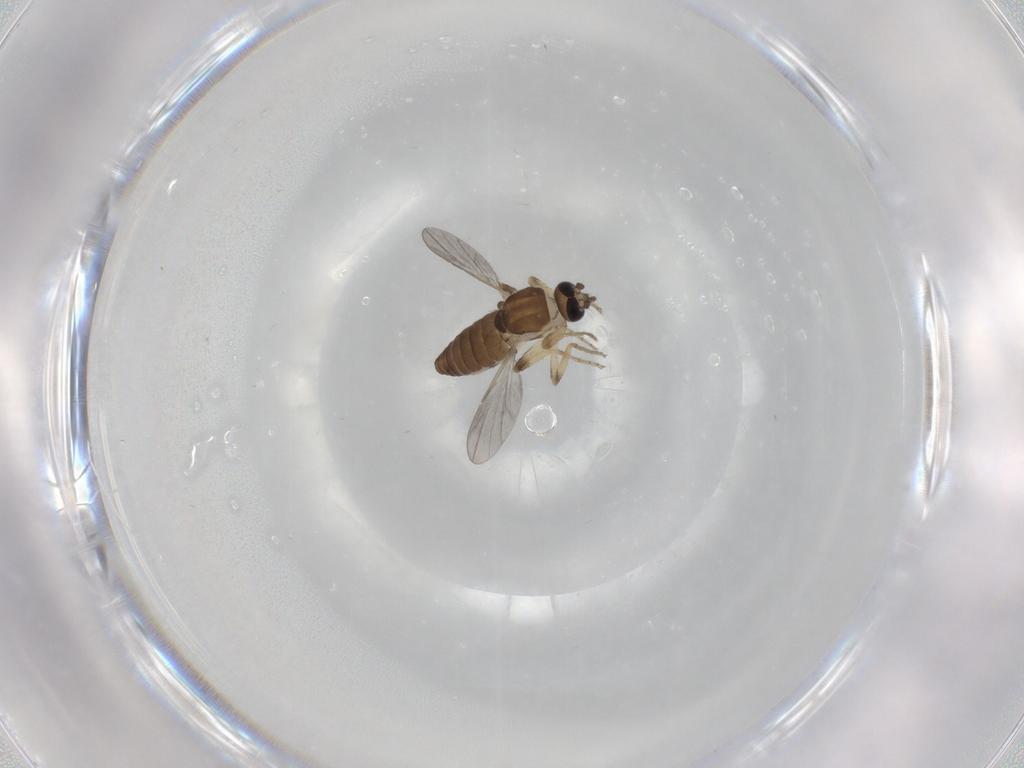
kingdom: Animalia
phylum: Arthropoda
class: Insecta
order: Diptera
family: Ceratopogonidae
